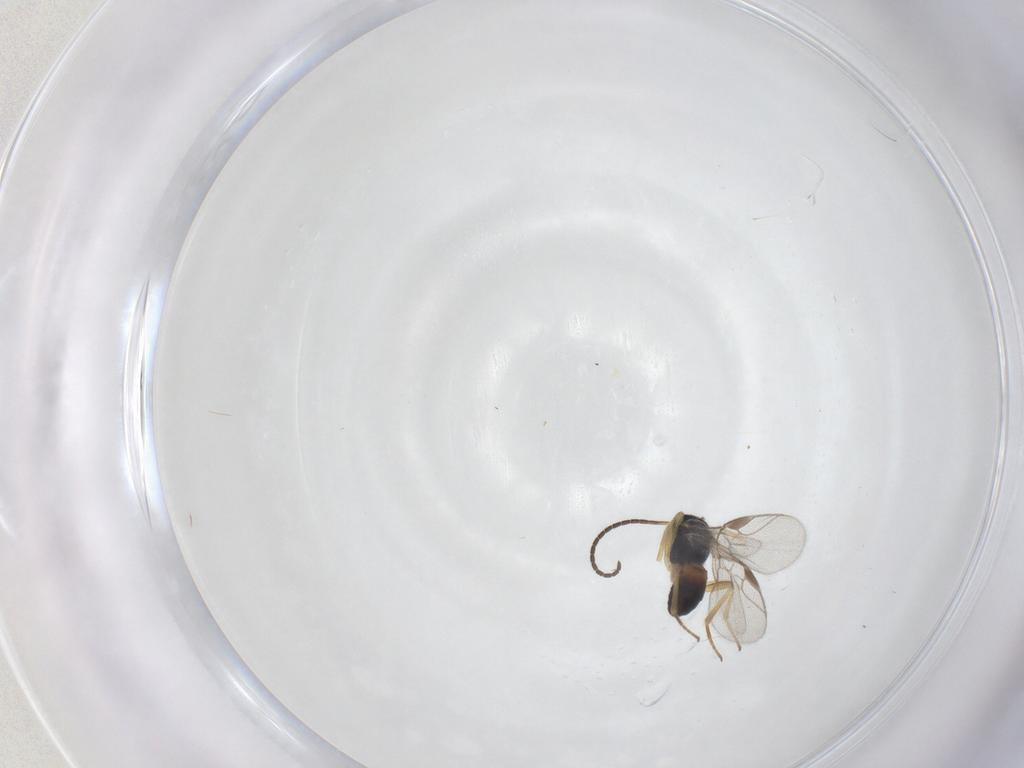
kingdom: Animalia
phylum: Arthropoda
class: Insecta
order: Hymenoptera
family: Braconidae
